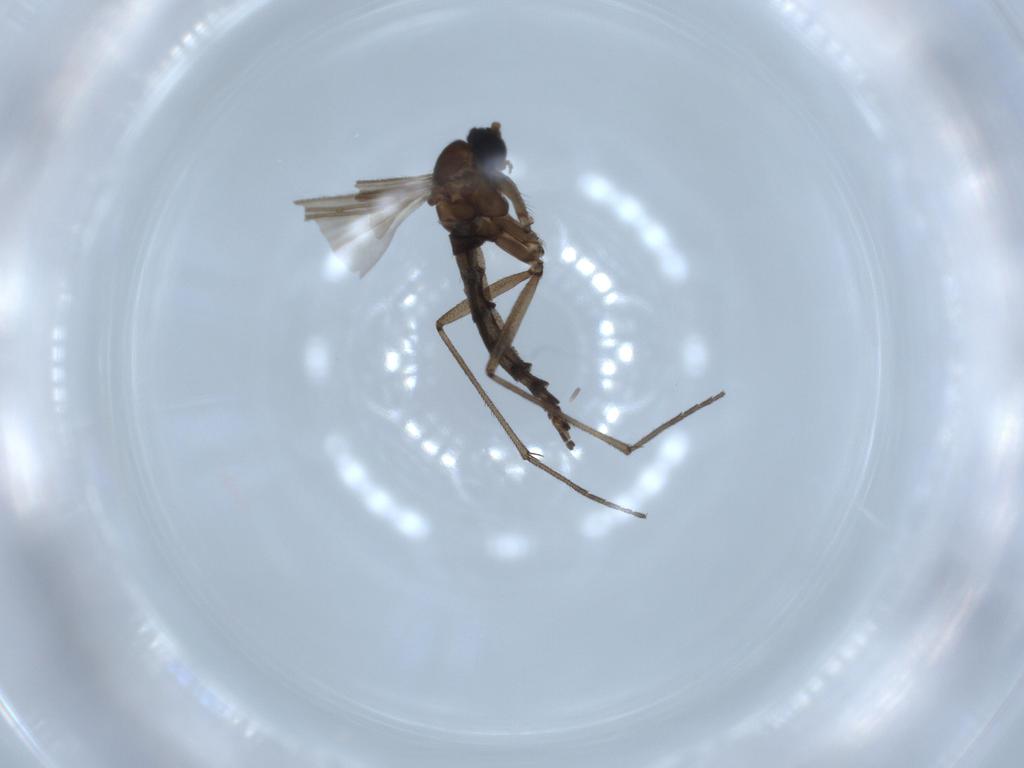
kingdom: Animalia
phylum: Arthropoda
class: Insecta
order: Diptera
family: Sciaridae
